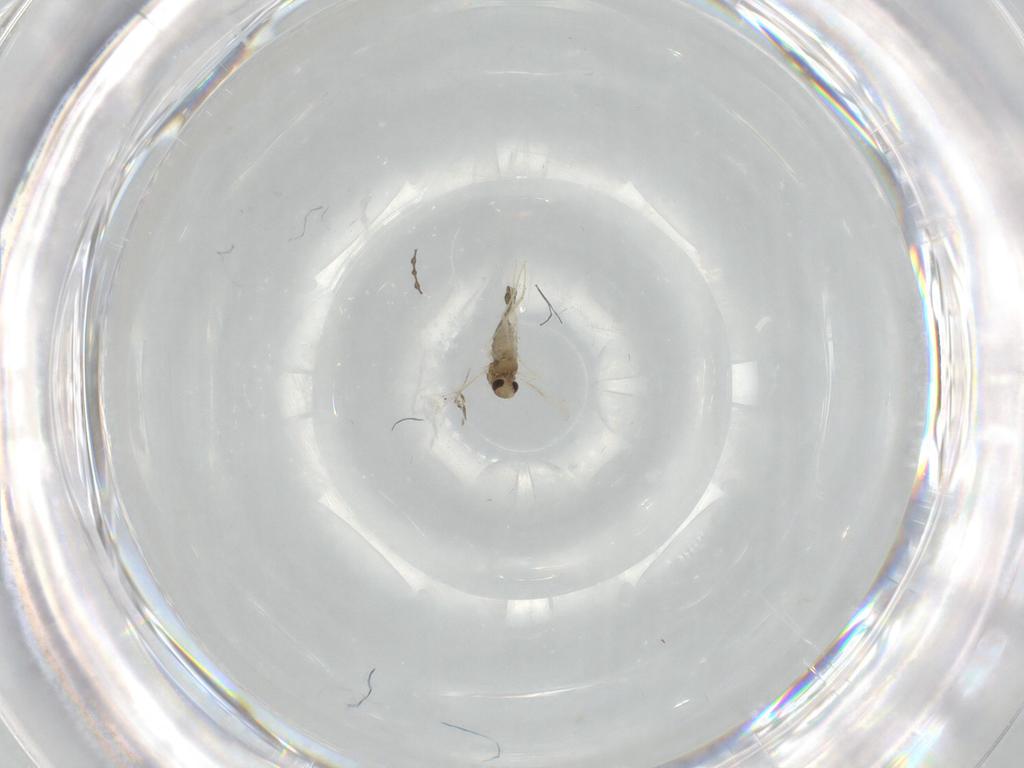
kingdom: Animalia
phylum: Arthropoda
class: Insecta
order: Diptera
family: Chironomidae
